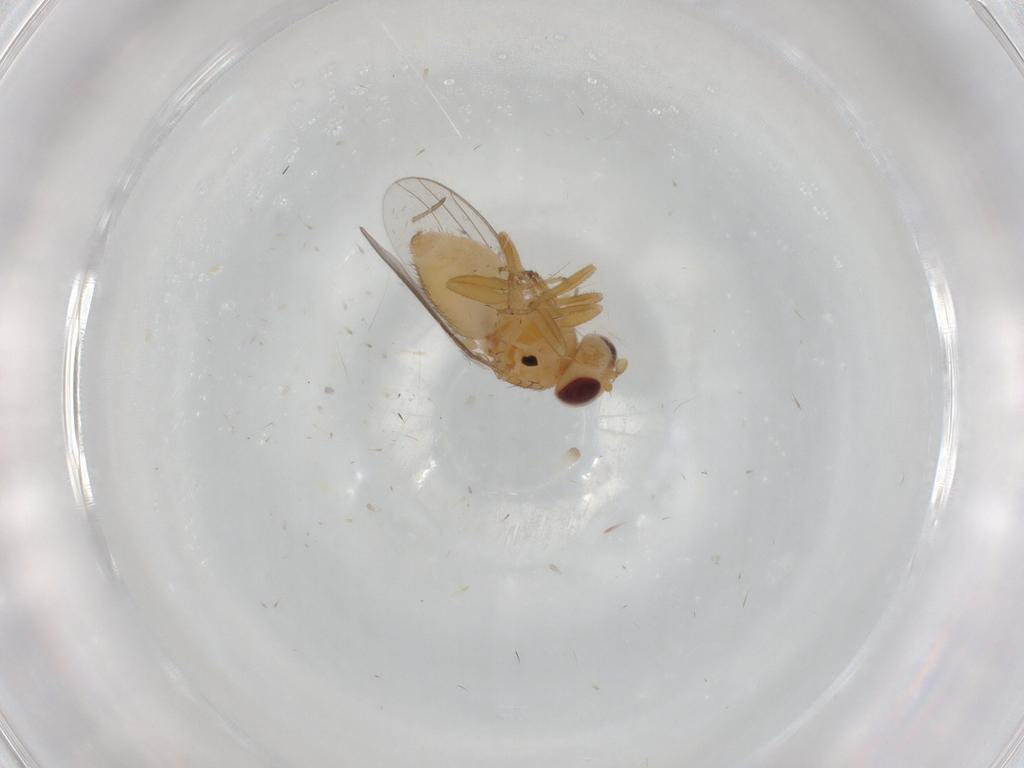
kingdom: Animalia
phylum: Arthropoda
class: Insecta
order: Diptera
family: Chloropidae
